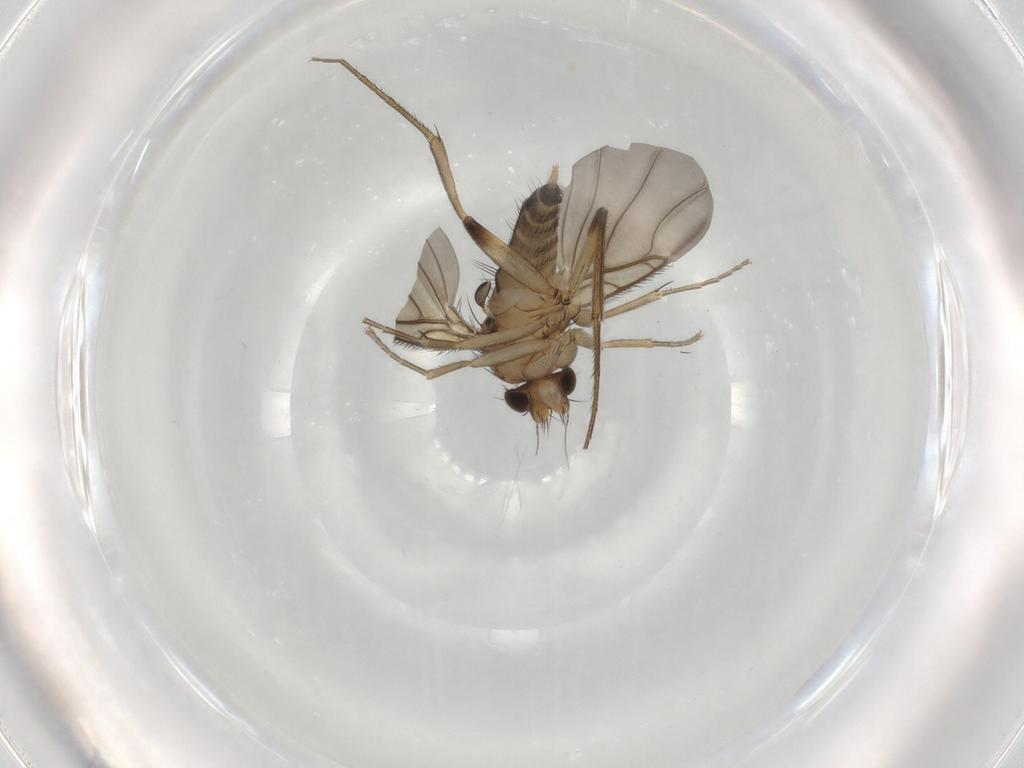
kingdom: Animalia
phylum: Arthropoda
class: Insecta
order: Diptera
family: Phoridae
